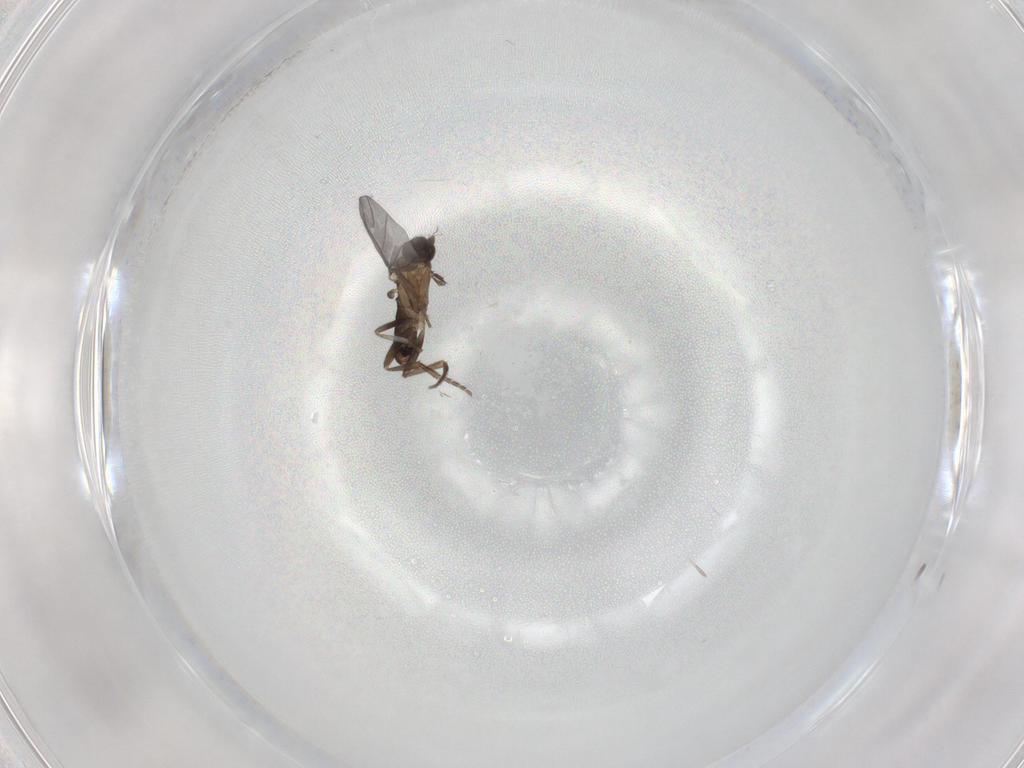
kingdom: Animalia
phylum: Arthropoda
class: Insecta
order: Diptera
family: Phoridae
